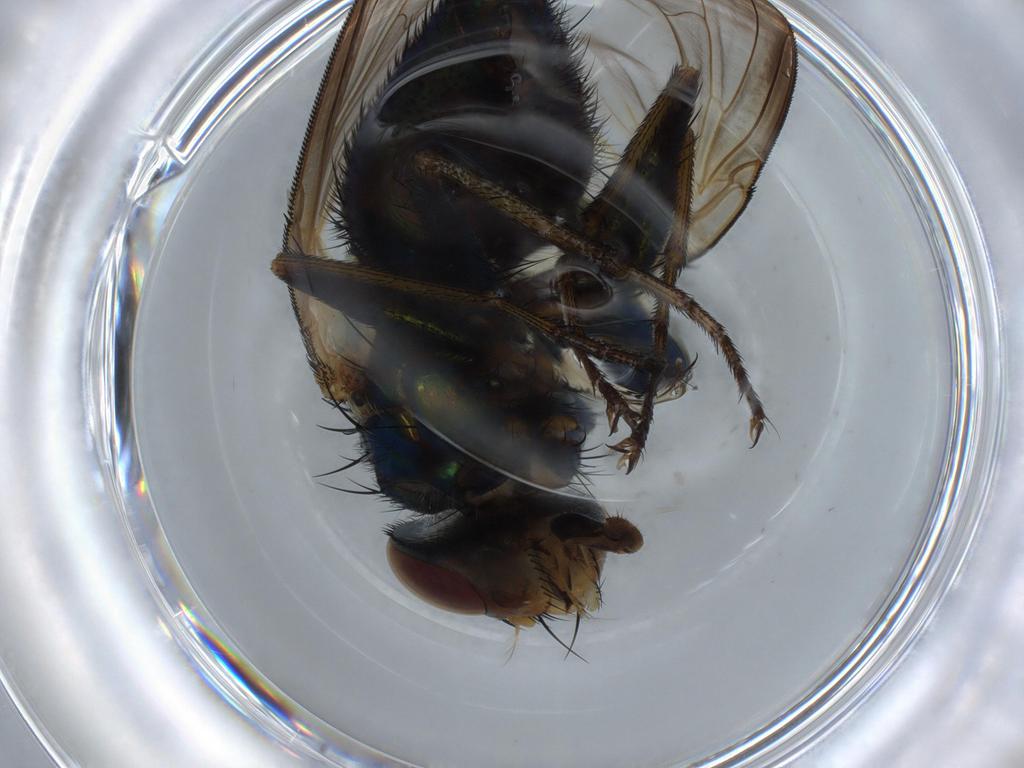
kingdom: Animalia
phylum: Arthropoda
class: Insecta
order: Diptera
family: Calliphoridae
